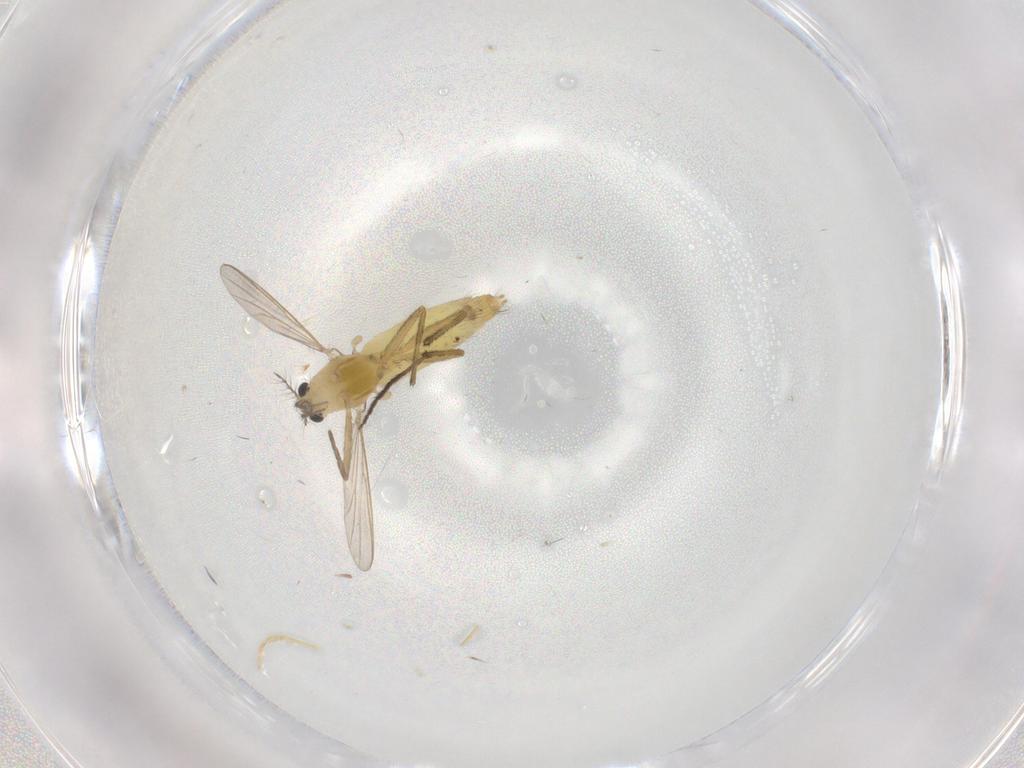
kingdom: Animalia
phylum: Arthropoda
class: Insecta
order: Diptera
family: Chironomidae
